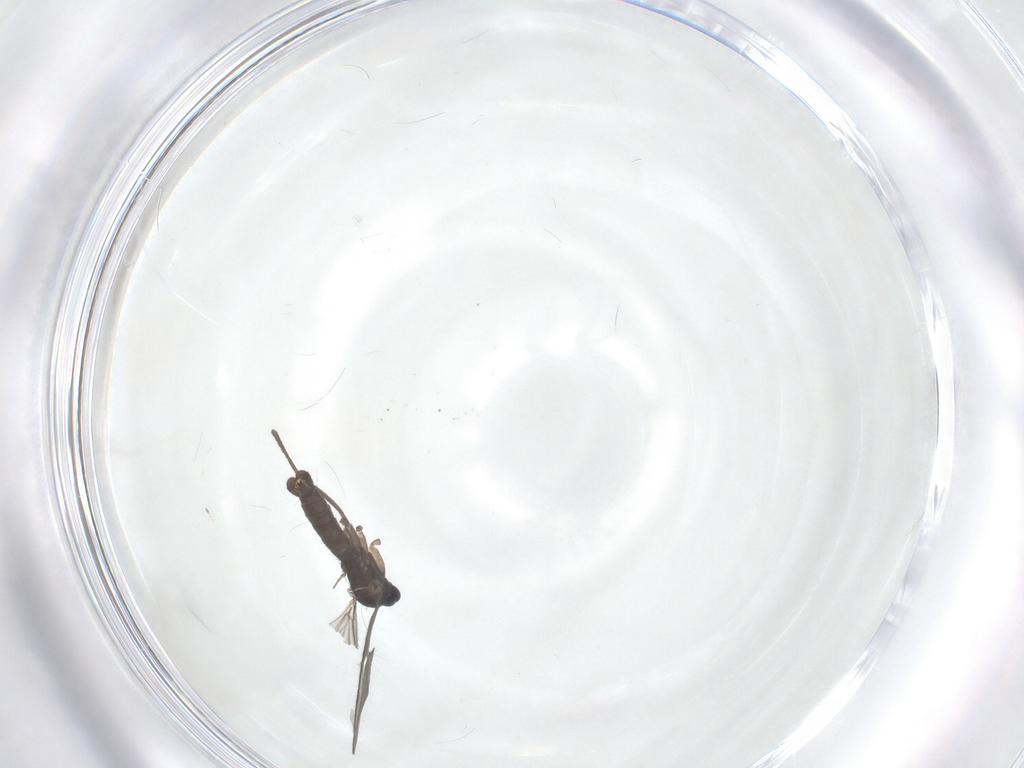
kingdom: Animalia
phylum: Arthropoda
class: Insecta
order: Diptera
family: Sciaridae
